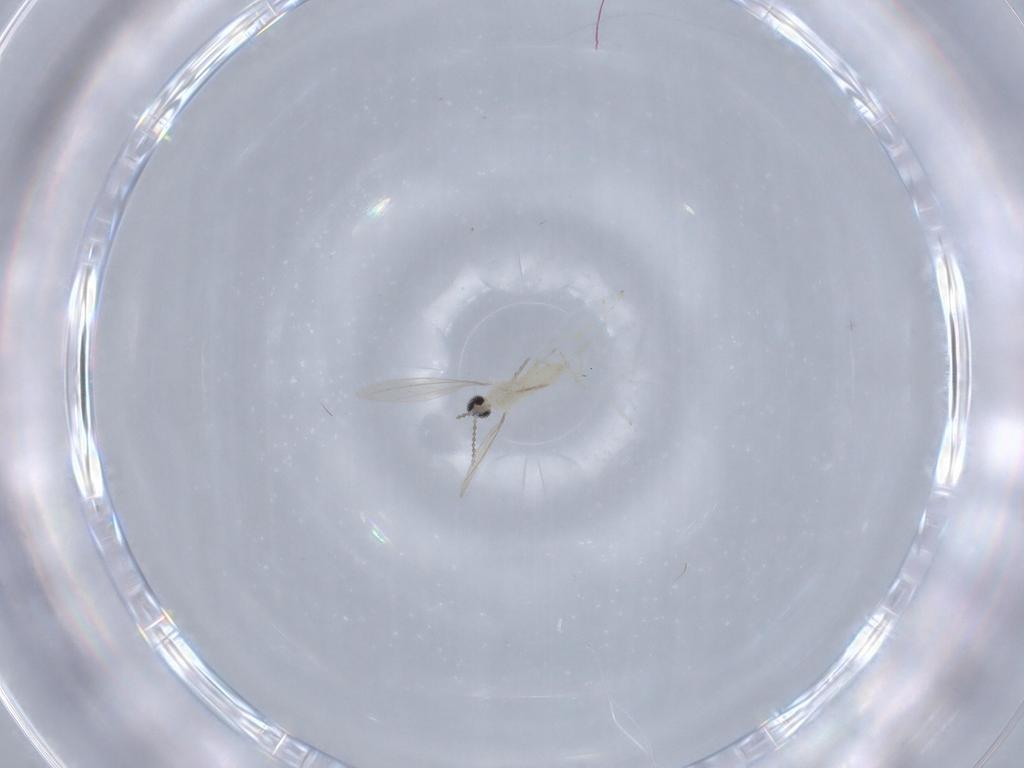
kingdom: Animalia
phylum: Arthropoda
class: Insecta
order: Diptera
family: Cecidomyiidae
